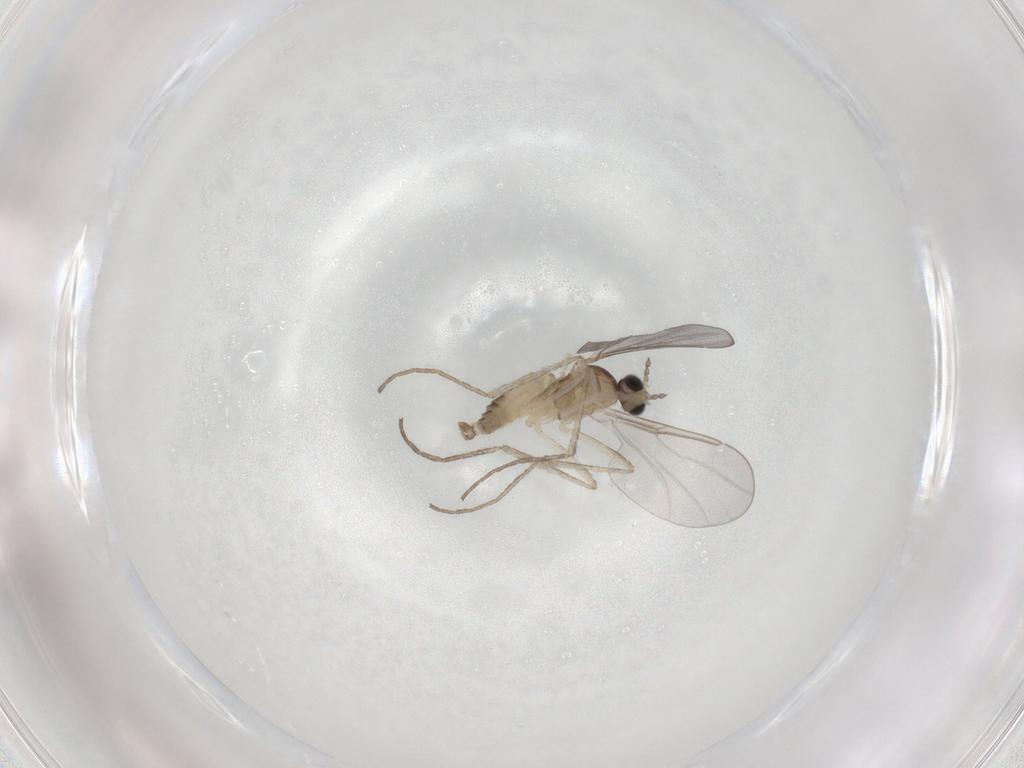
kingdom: Animalia
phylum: Arthropoda
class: Insecta
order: Diptera
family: Cecidomyiidae
